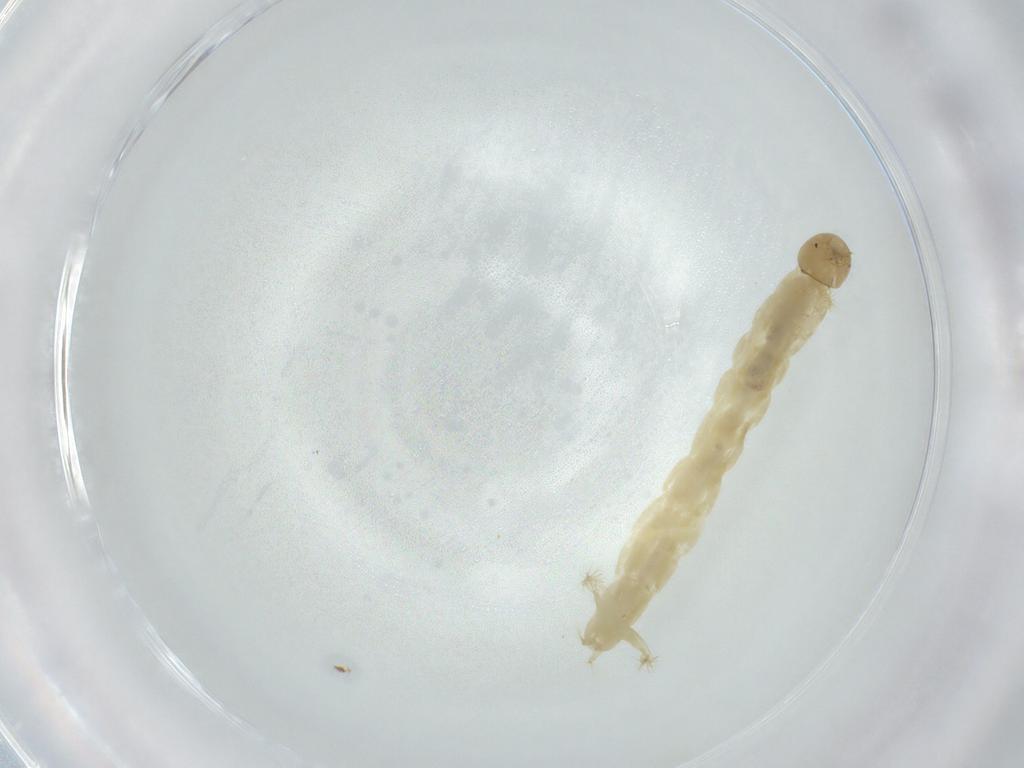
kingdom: Animalia
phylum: Arthropoda
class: Insecta
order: Diptera
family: Chironomidae
